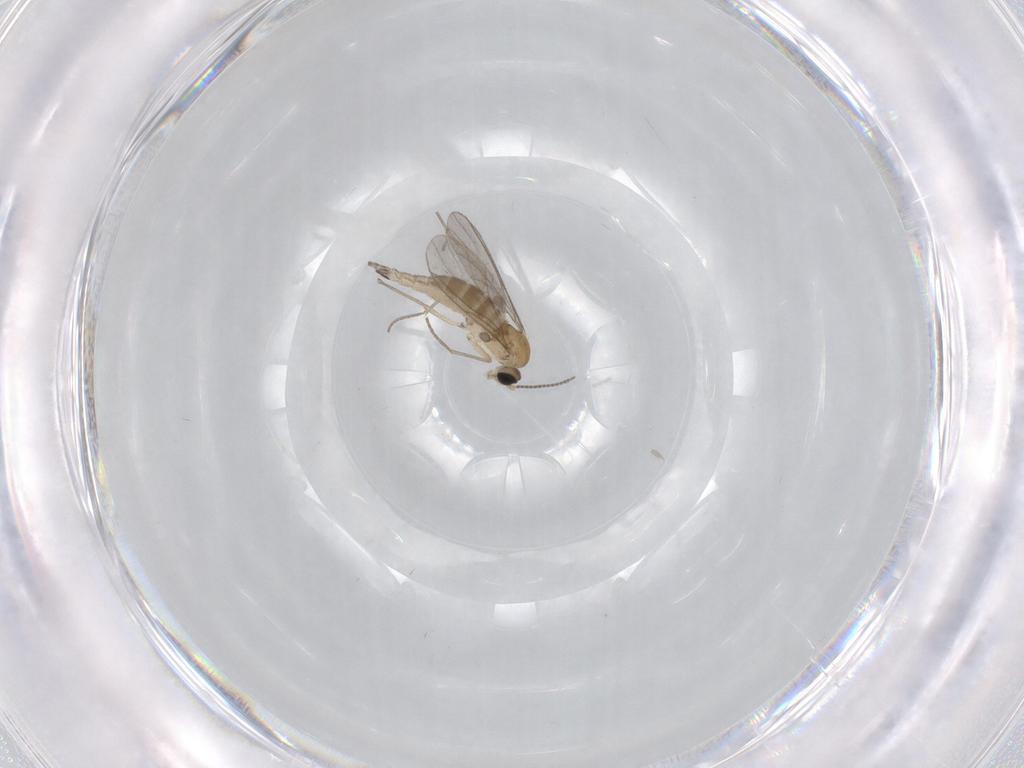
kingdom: Animalia
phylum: Arthropoda
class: Insecta
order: Diptera
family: Sciaridae
